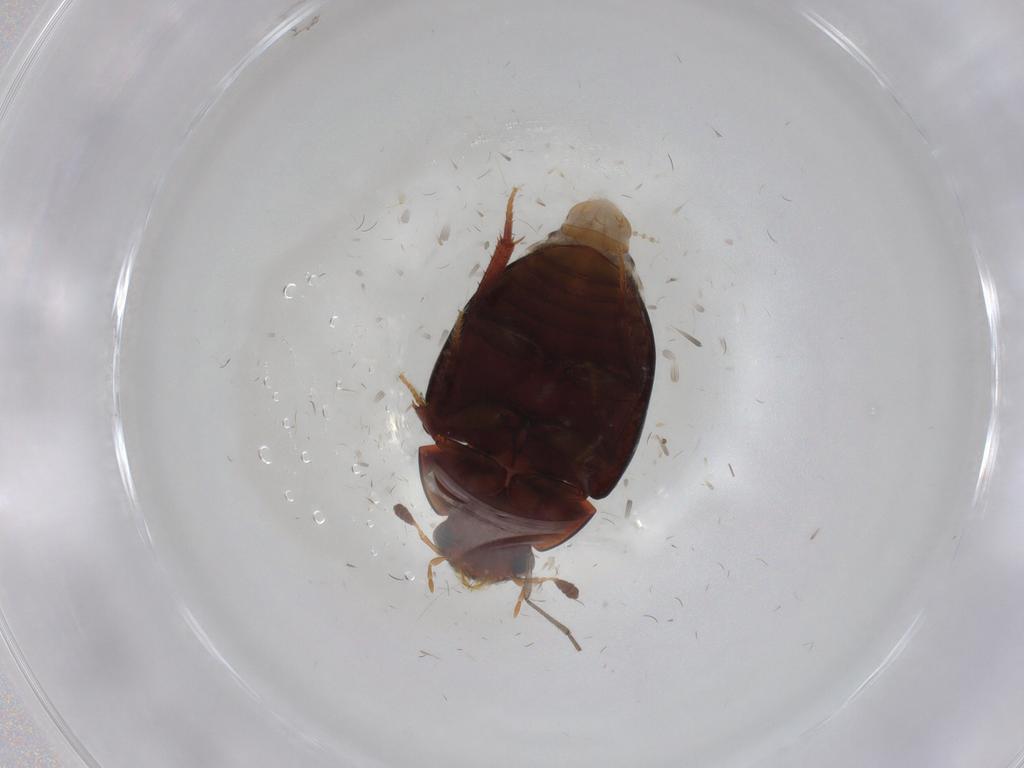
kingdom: Animalia
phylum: Arthropoda
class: Insecta
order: Coleoptera
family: Hydrophilidae
